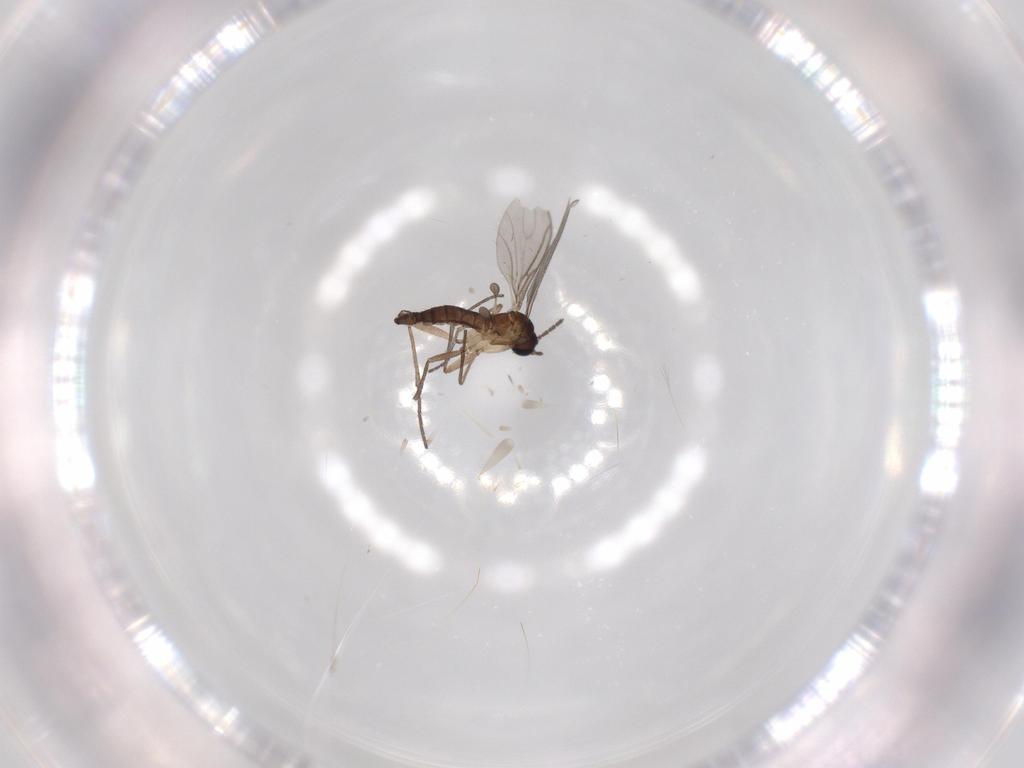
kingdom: Animalia
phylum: Arthropoda
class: Insecta
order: Diptera
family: Sciaridae
